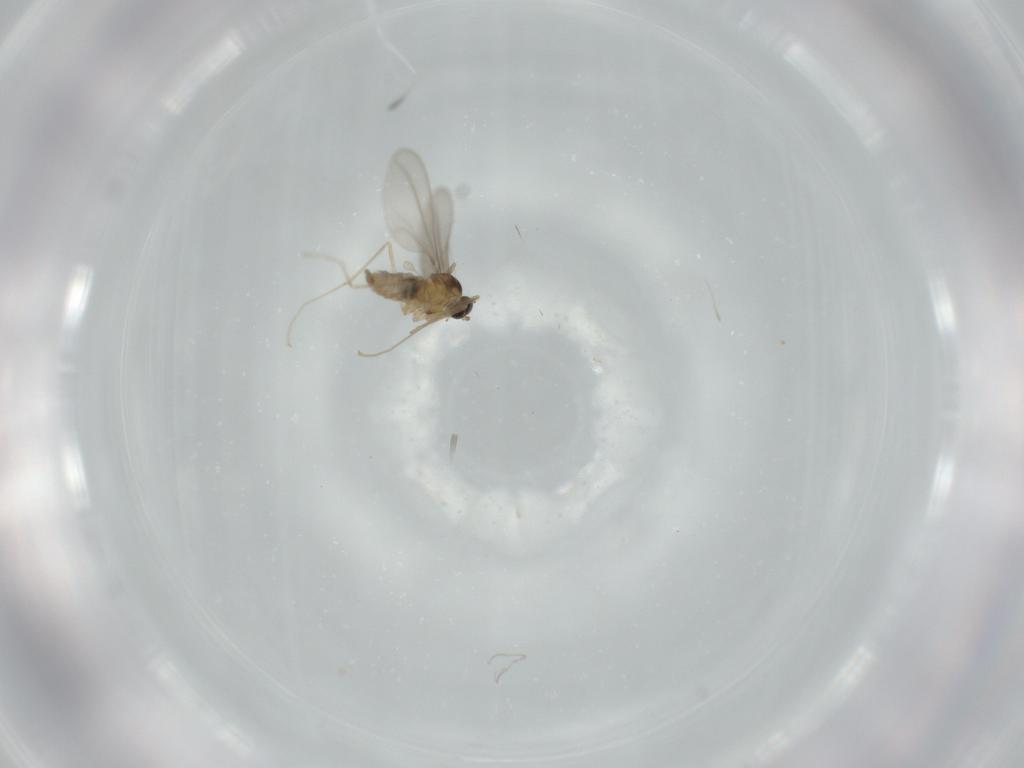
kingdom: Animalia
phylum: Arthropoda
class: Insecta
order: Diptera
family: Cecidomyiidae
